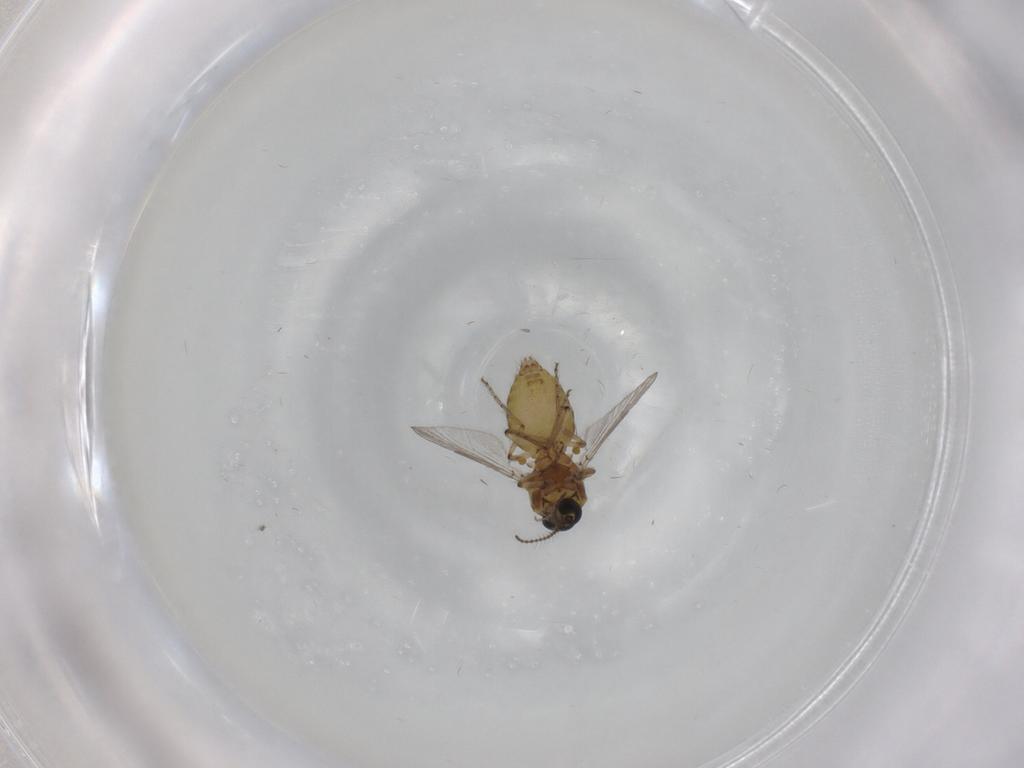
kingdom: Animalia
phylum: Arthropoda
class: Insecta
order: Diptera
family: Ceratopogonidae
